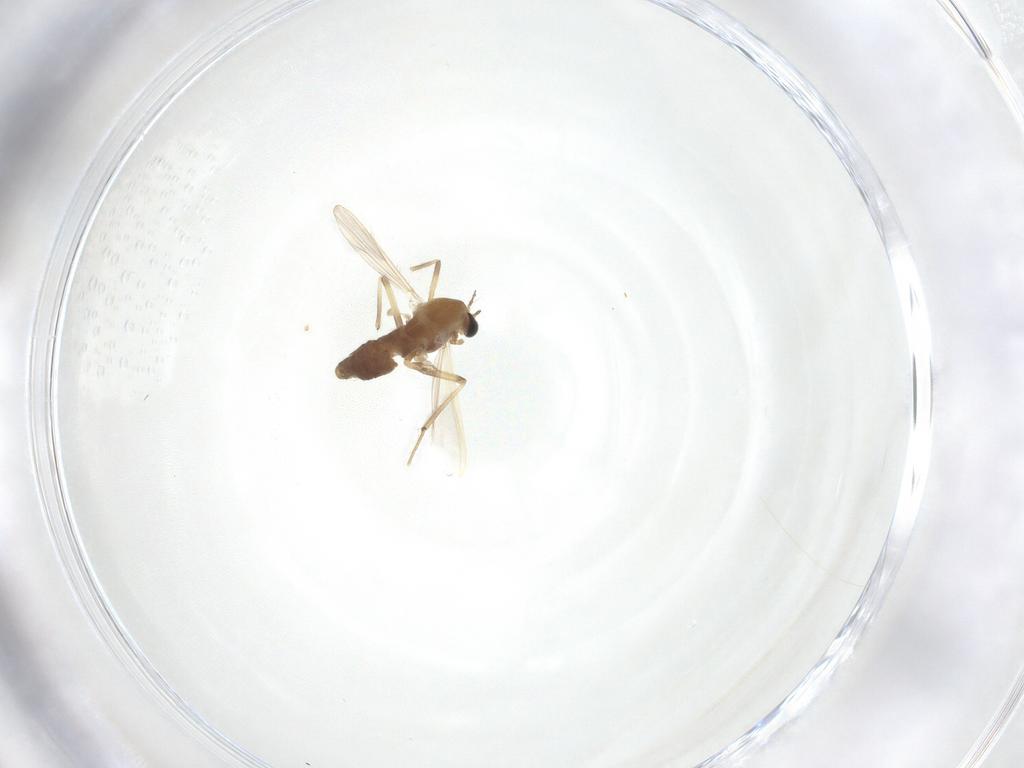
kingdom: Animalia
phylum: Arthropoda
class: Insecta
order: Diptera
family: Chironomidae
